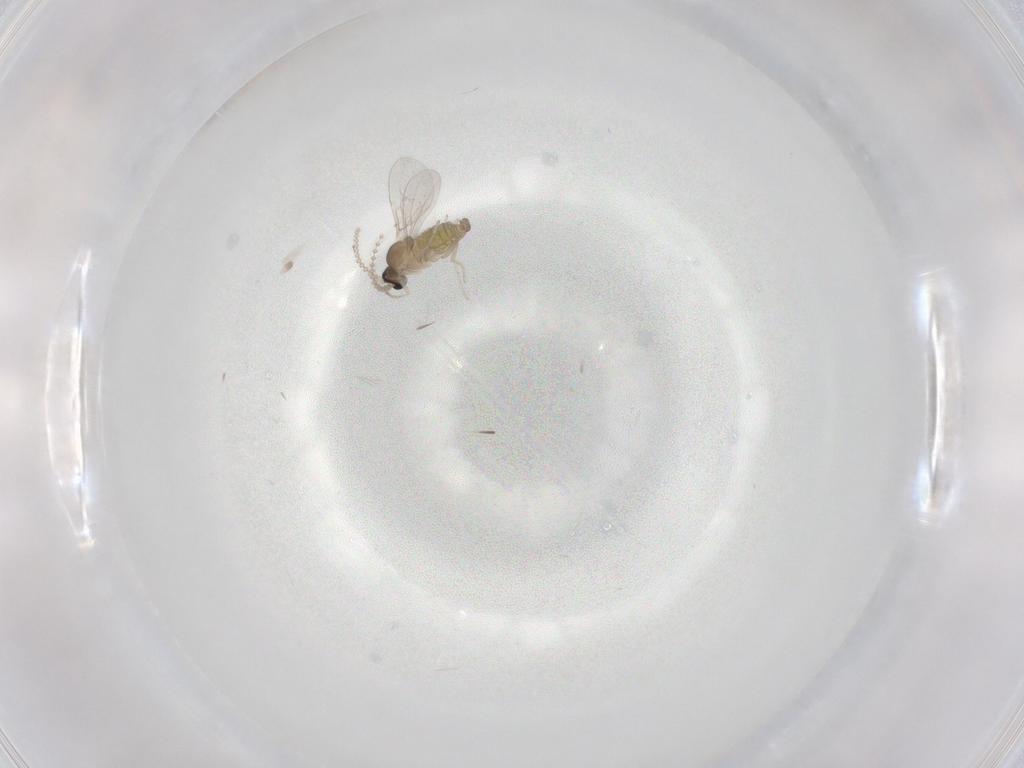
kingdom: Animalia
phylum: Arthropoda
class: Insecta
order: Diptera
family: Cecidomyiidae
